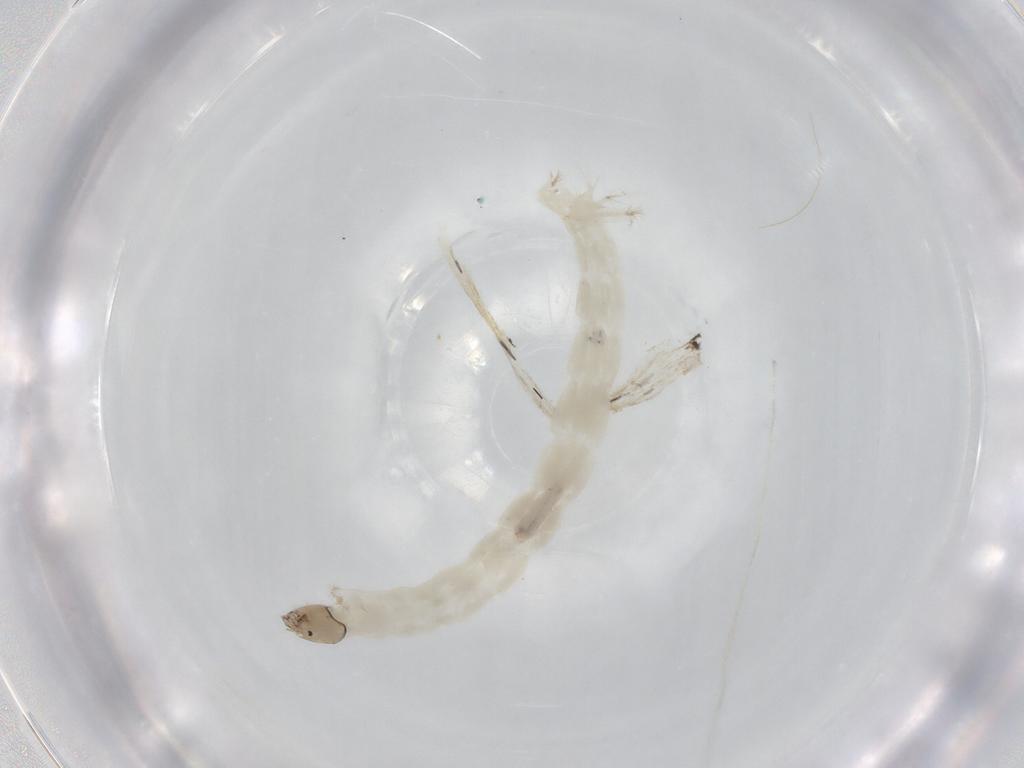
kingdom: Animalia
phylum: Arthropoda
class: Insecta
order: Diptera
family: Chironomidae
